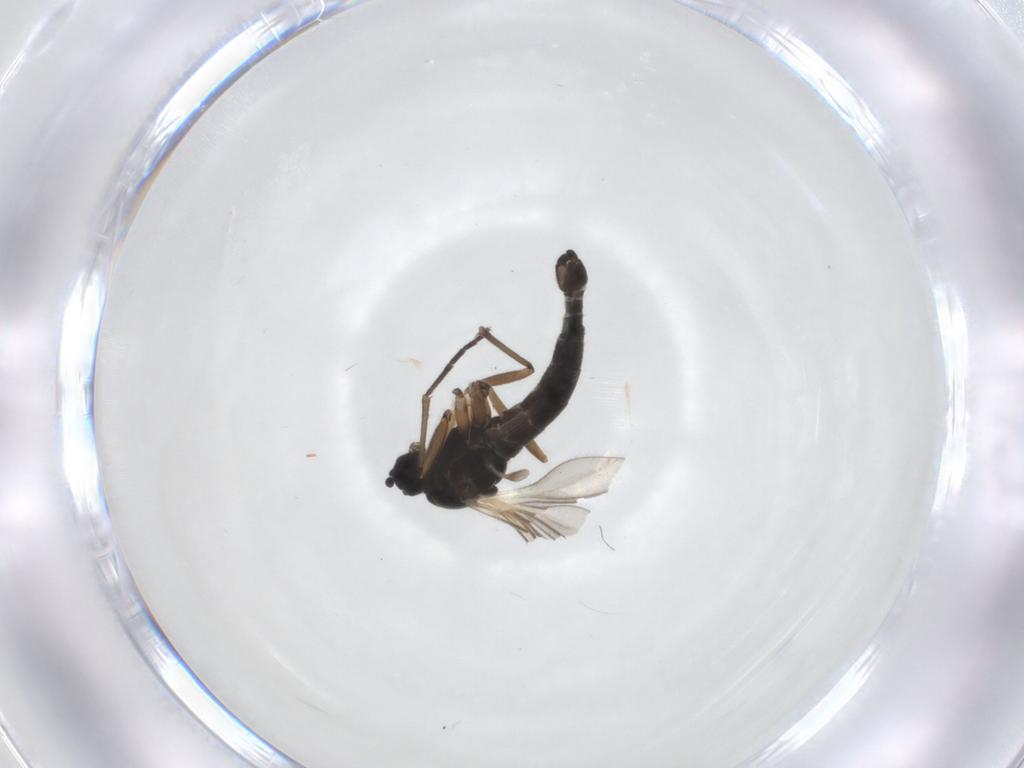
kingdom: Animalia
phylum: Arthropoda
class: Insecta
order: Diptera
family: Sciaridae
